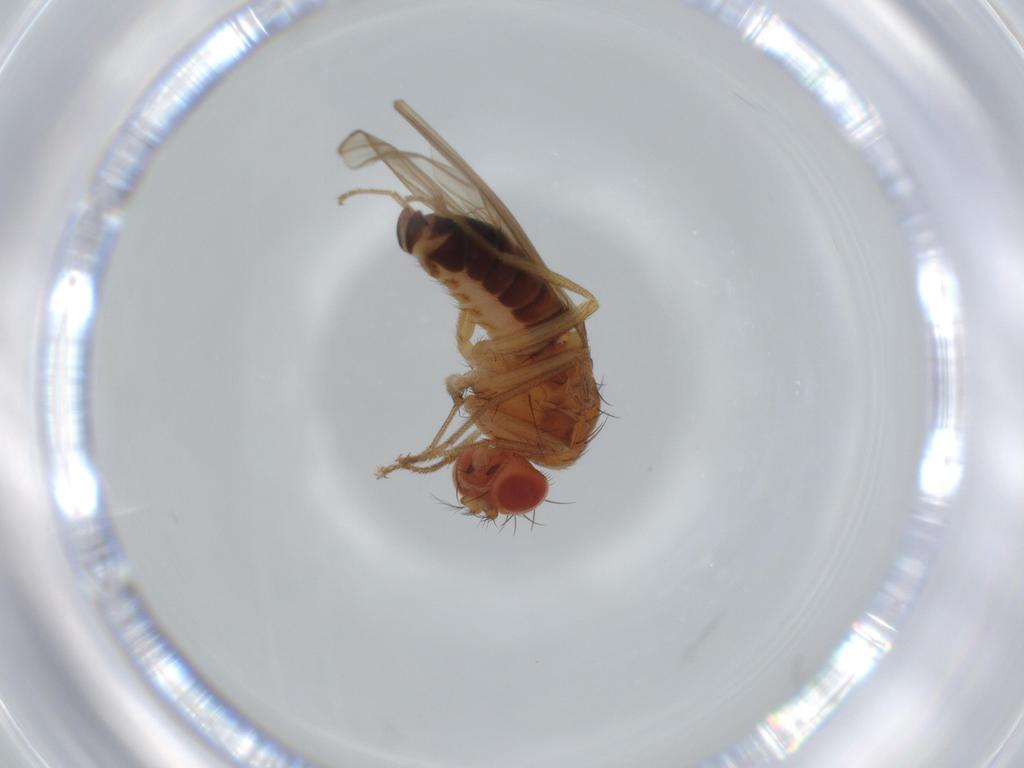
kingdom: Animalia
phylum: Arthropoda
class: Insecta
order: Diptera
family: Drosophilidae
